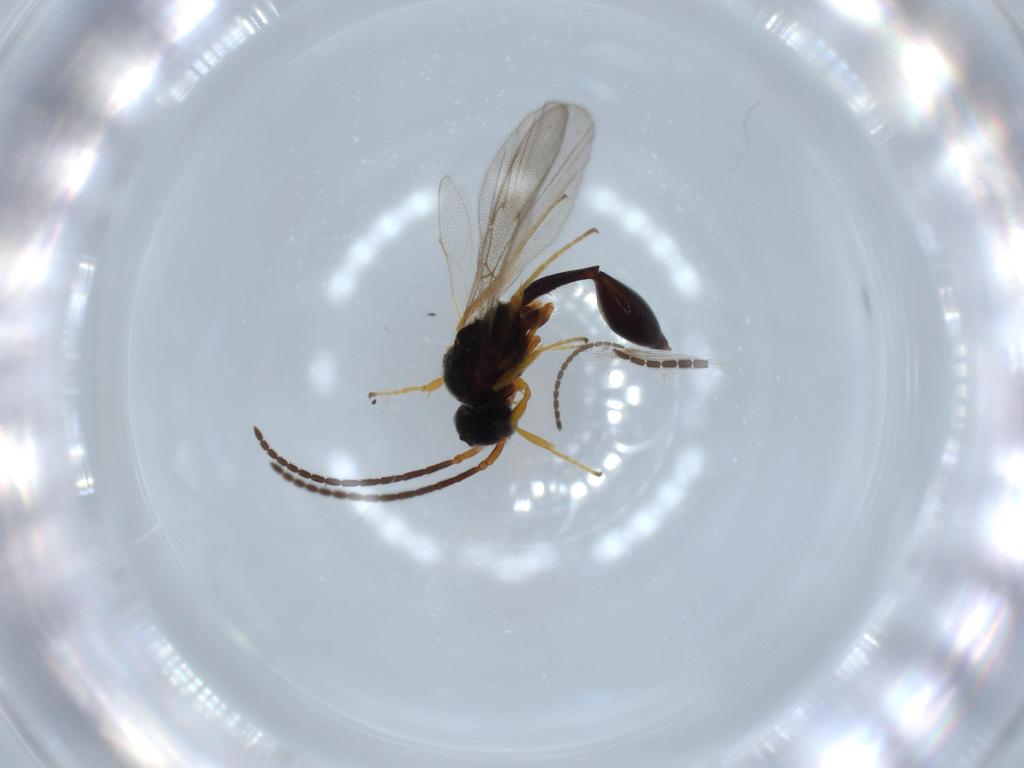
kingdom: Animalia
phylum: Arthropoda
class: Insecta
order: Hymenoptera
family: Diapriidae
